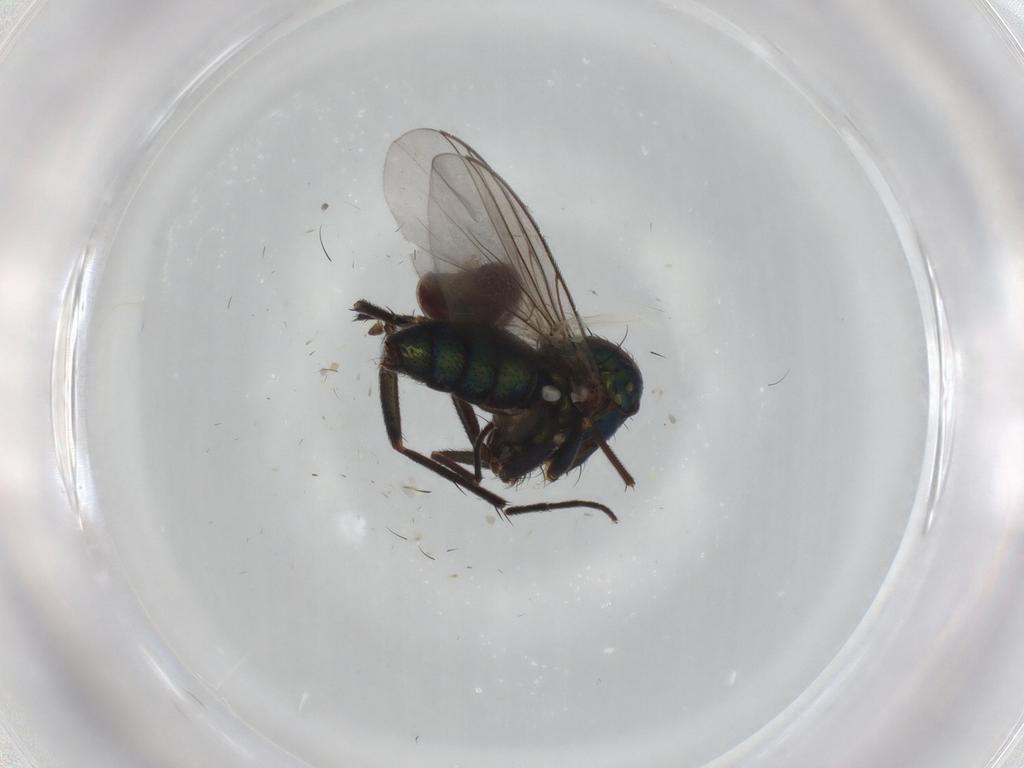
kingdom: Animalia
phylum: Arthropoda
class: Insecta
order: Diptera
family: Dolichopodidae
